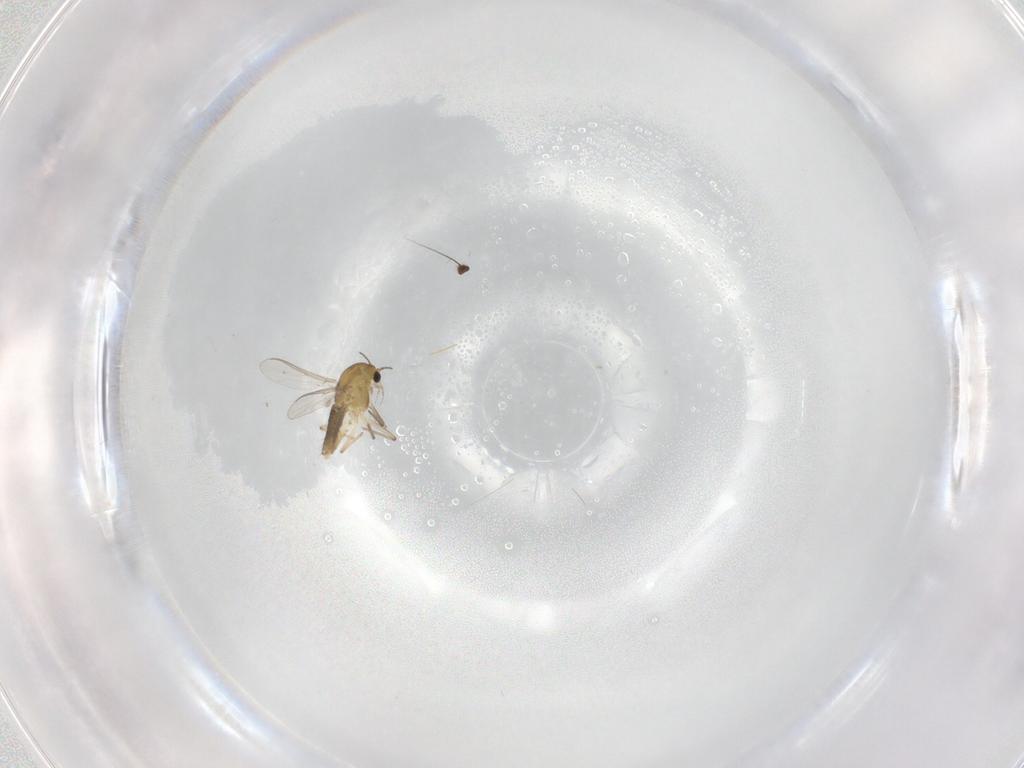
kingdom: Animalia
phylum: Arthropoda
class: Insecta
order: Diptera
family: Chironomidae
